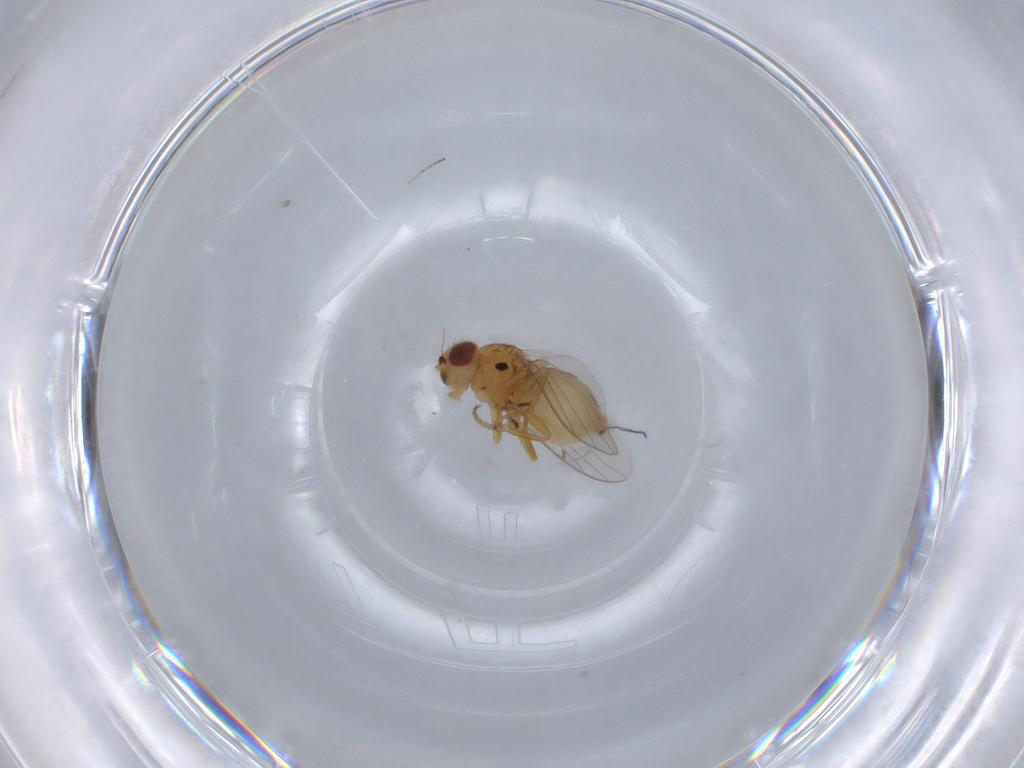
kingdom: Animalia
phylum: Arthropoda
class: Insecta
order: Diptera
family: Chloropidae
